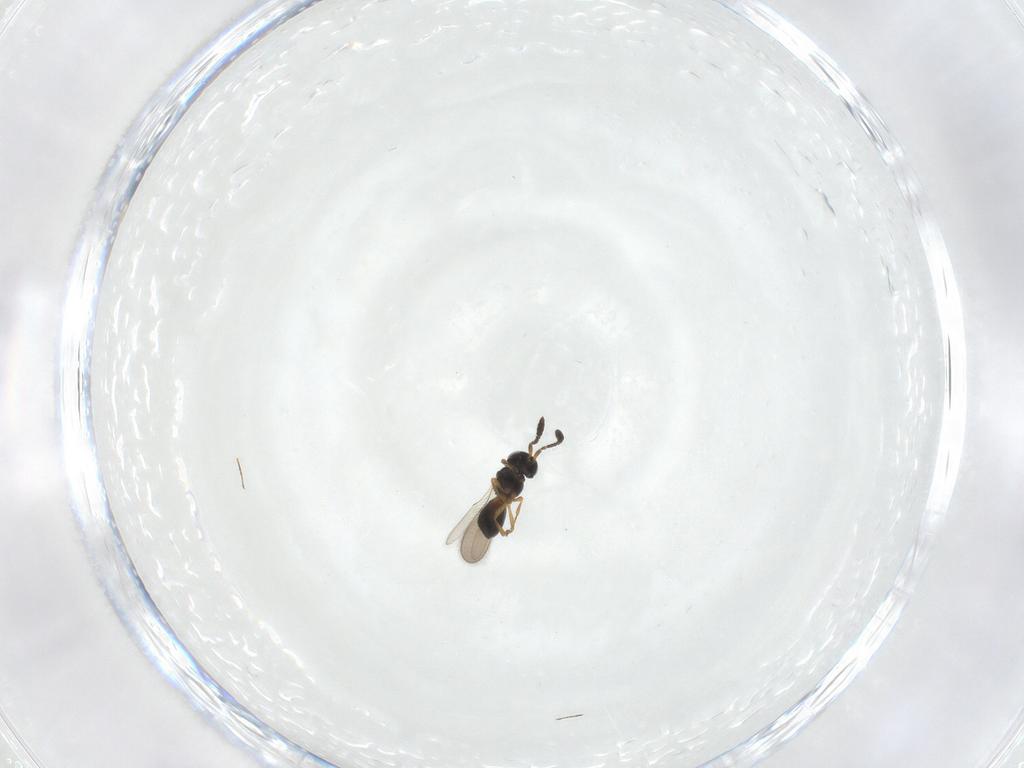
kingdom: Animalia
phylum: Arthropoda
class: Insecta
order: Hymenoptera
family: Scelionidae
